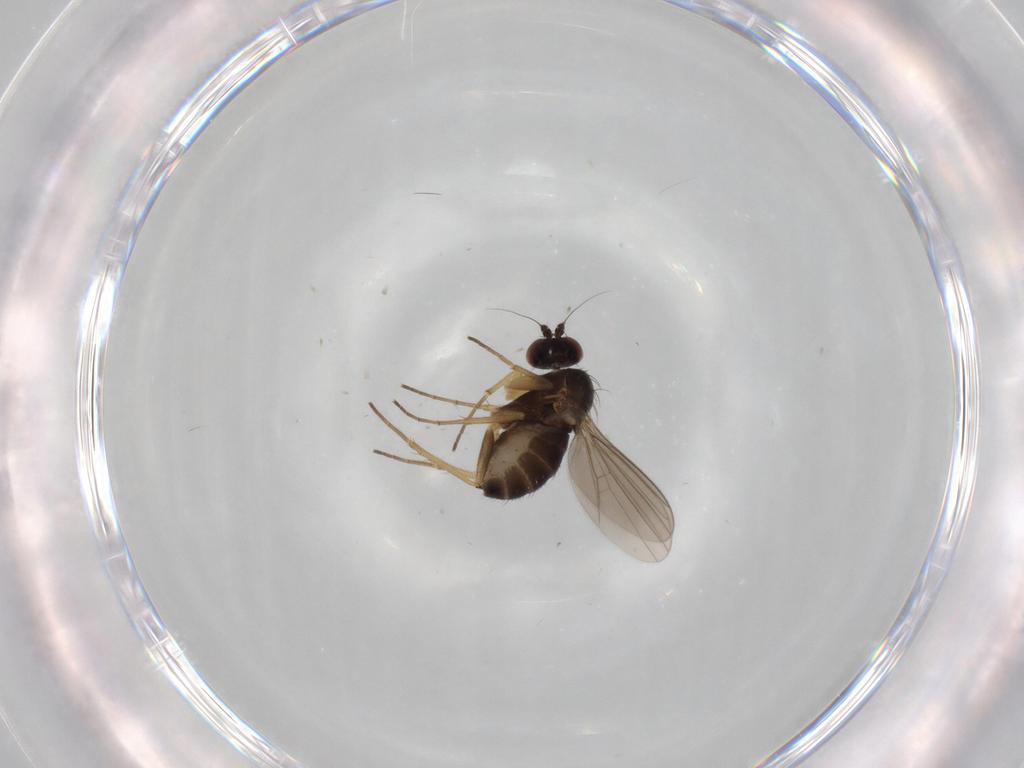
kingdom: Animalia
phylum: Arthropoda
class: Insecta
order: Diptera
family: Dolichopodidae
